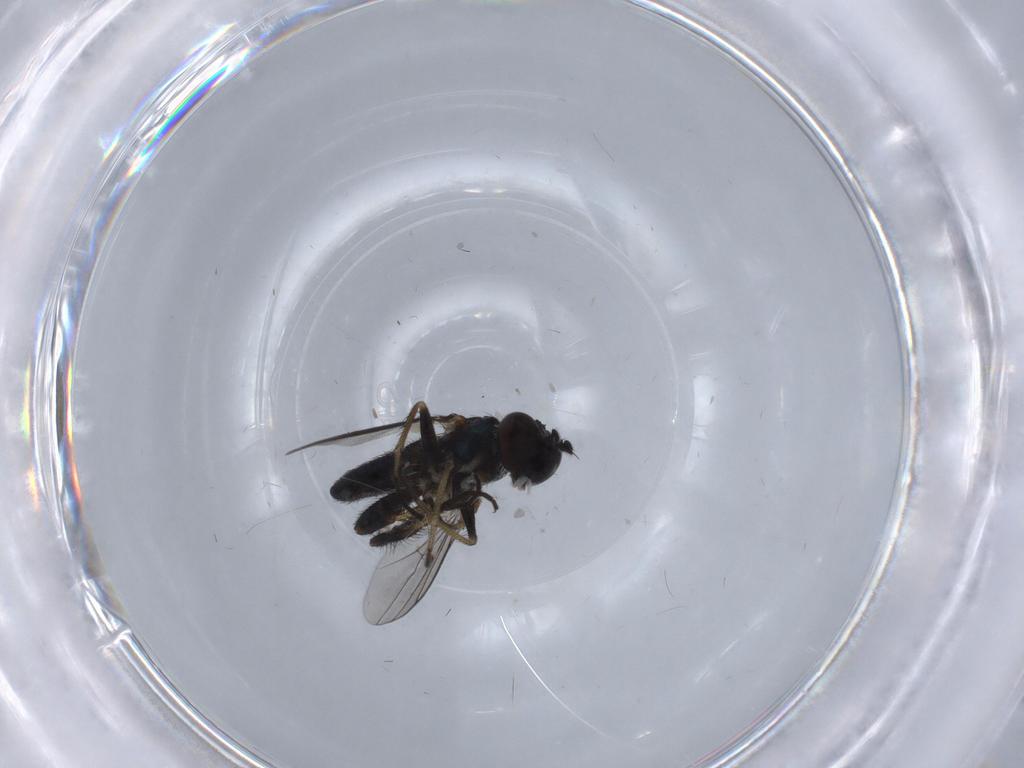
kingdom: Animalia
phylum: Arthropoda
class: Insecta
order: Diptera
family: Dolichopodidae
